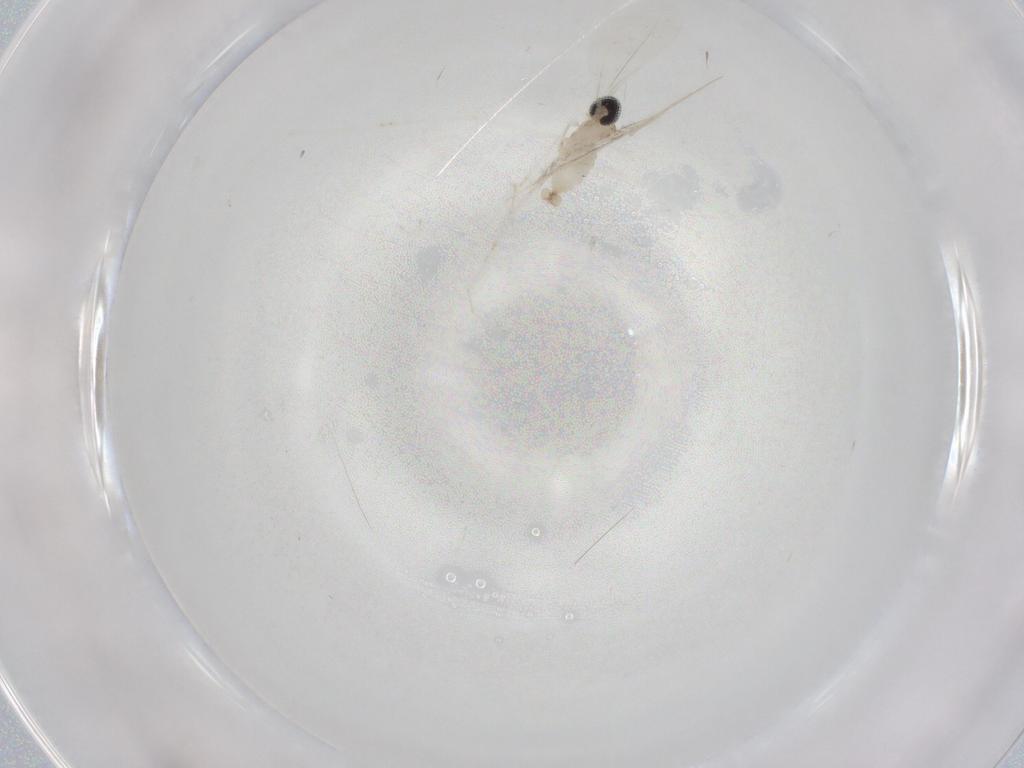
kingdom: Animalia
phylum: Arthropoda
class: Insecta
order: Diptera
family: Cecidomyiidae
